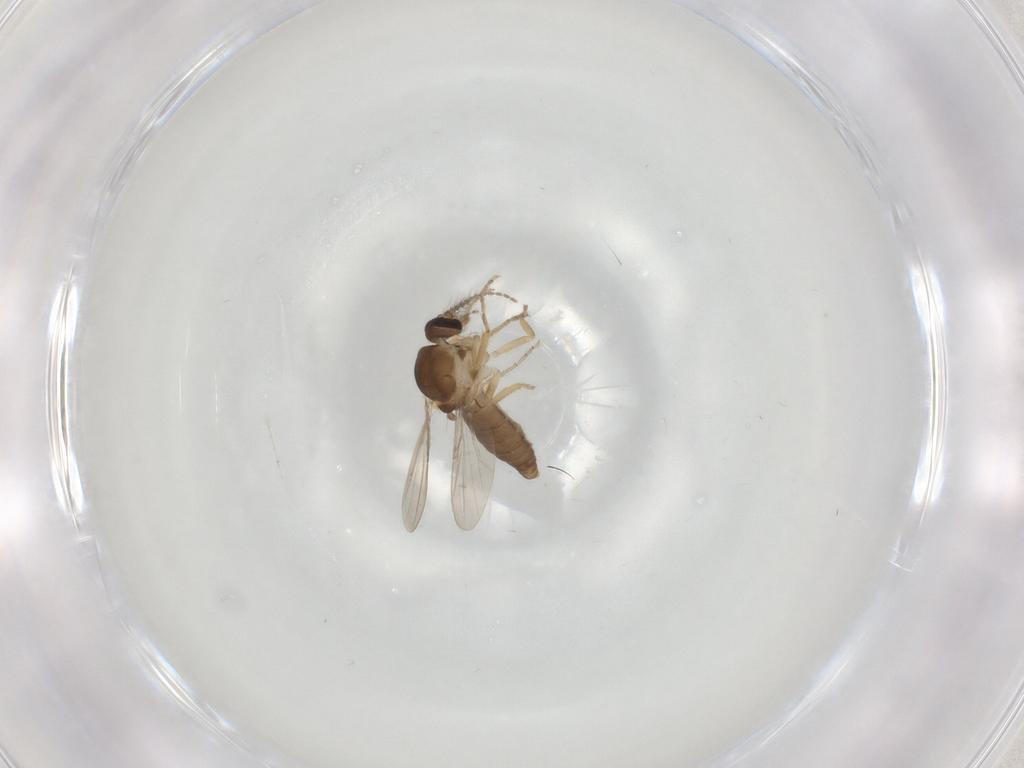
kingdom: Animalia
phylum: Arthropoda
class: Insecta
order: Diptera
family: Ceratopogonidae
